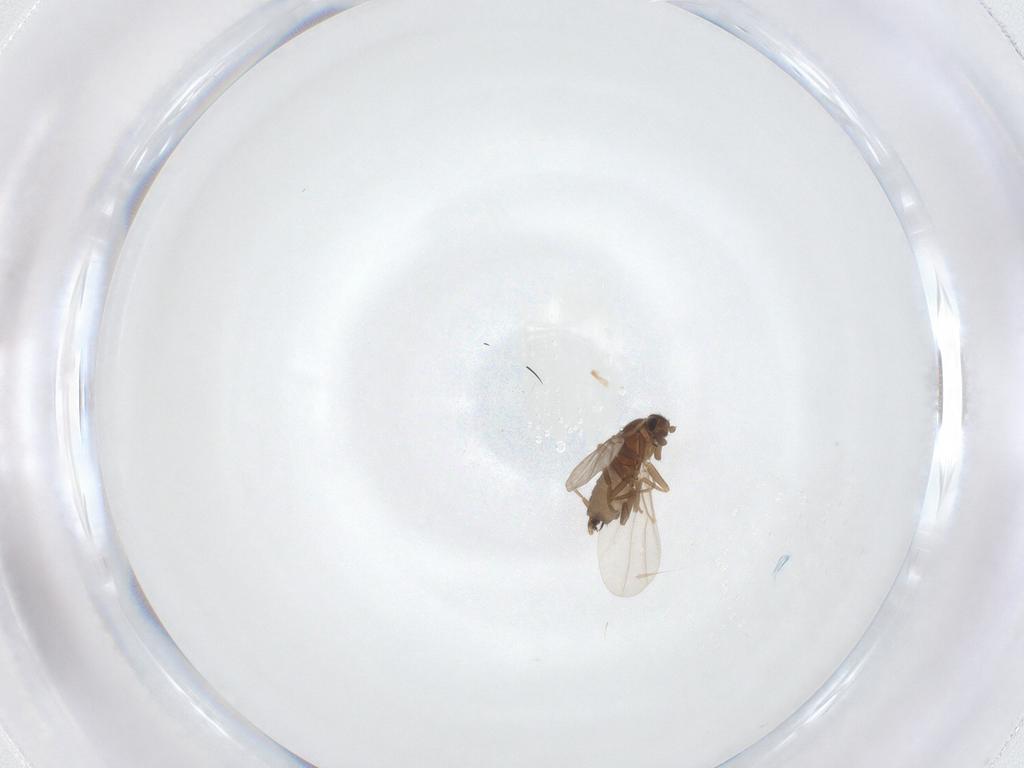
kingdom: Animalia
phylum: Arthropoda
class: Insecta
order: Diptera
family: Phoridae
